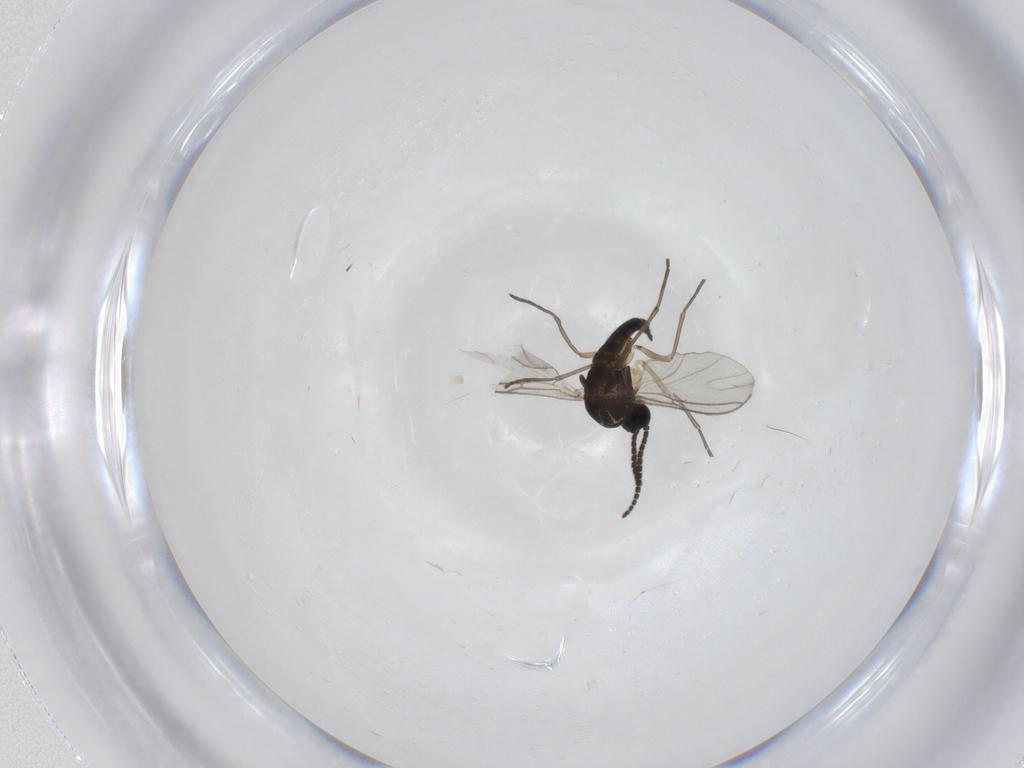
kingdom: Animalia
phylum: Arthropoda
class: Insecta
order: Diptera
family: Sciaridae
